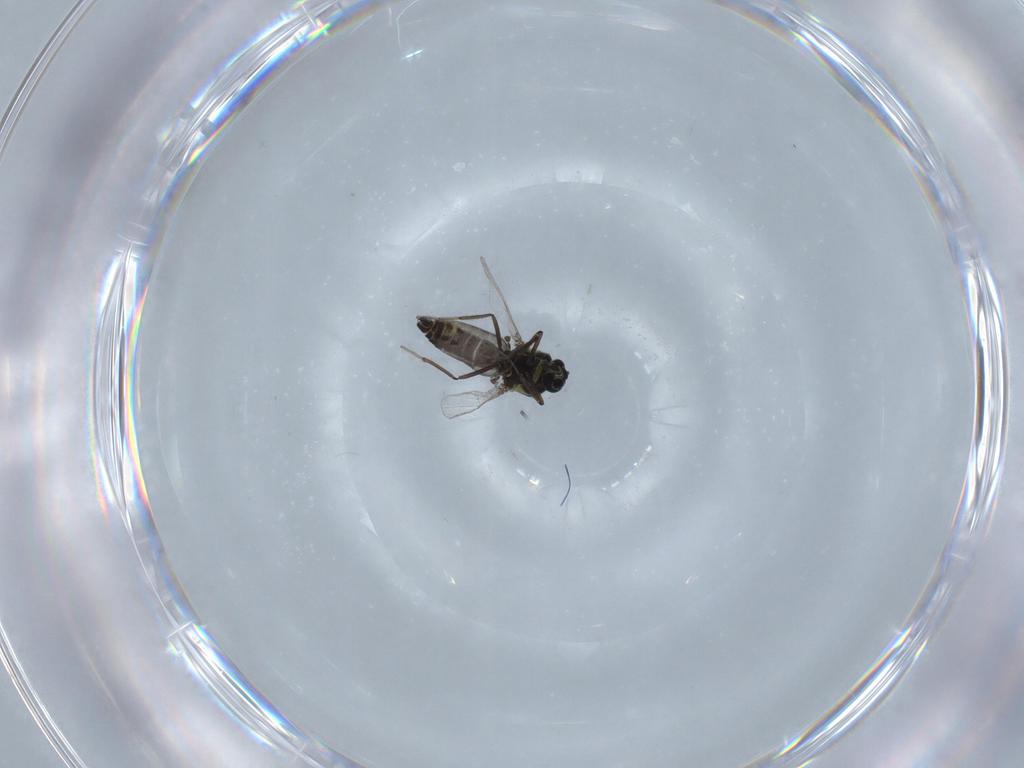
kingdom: Animalia
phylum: Arthropoda
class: Insecta
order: Diptera
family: Ceratopogonidae
